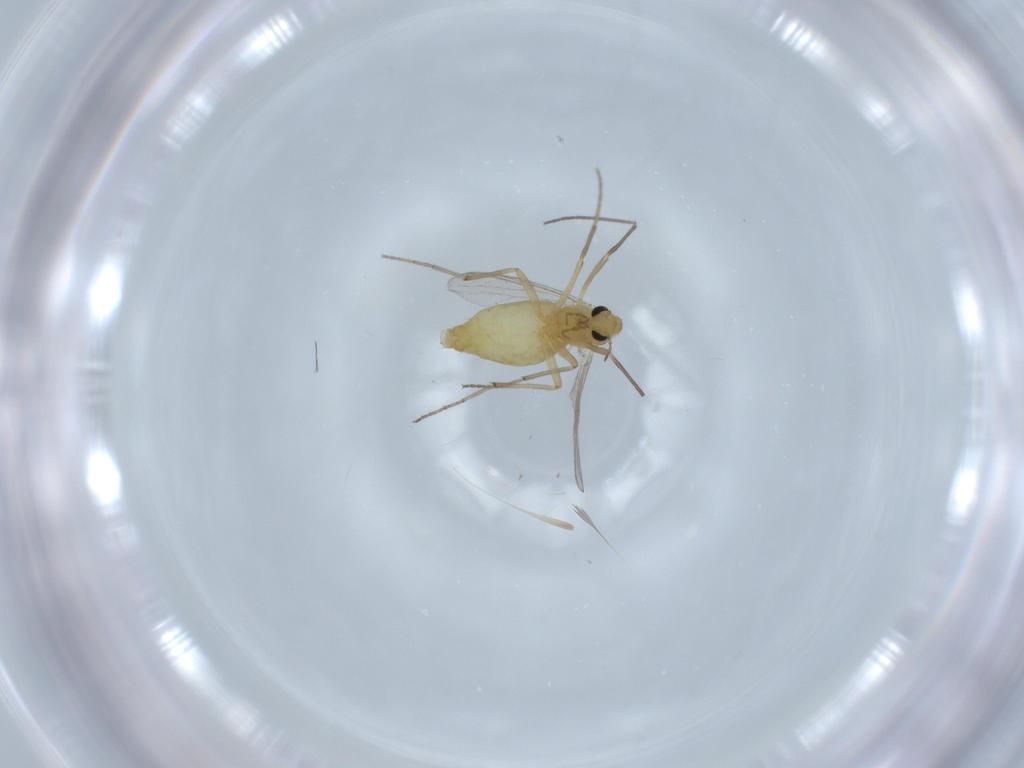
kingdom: Animalia
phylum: Arthropoda
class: Insecta
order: Diptera
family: Chironomidae
